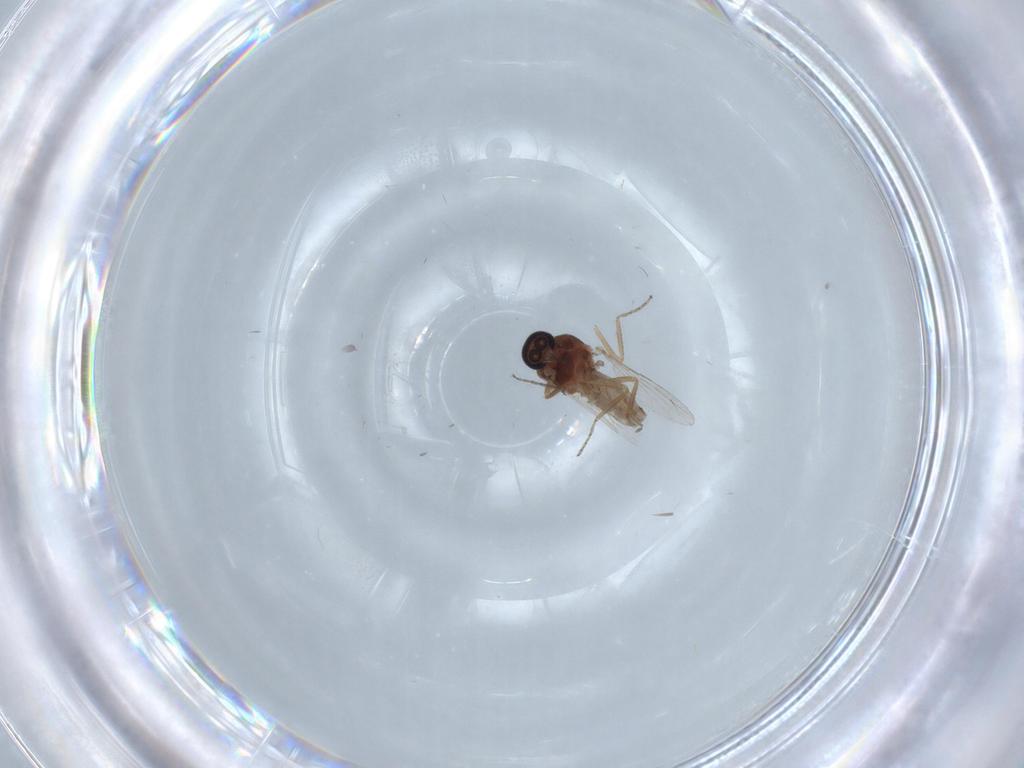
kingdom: Animalia
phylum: Arthropoda
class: Insecta
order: Diptera
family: Ceratopogonidae
